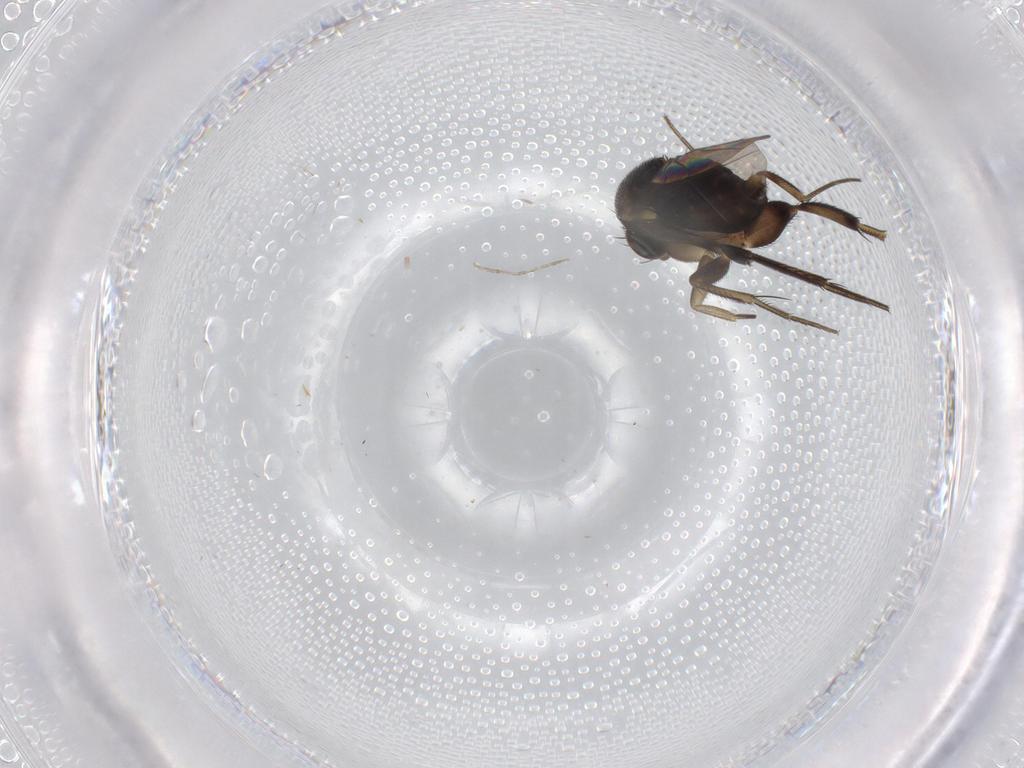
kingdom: Animalia
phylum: Arthropoda
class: Insecta
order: Diptera
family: Phoridae
